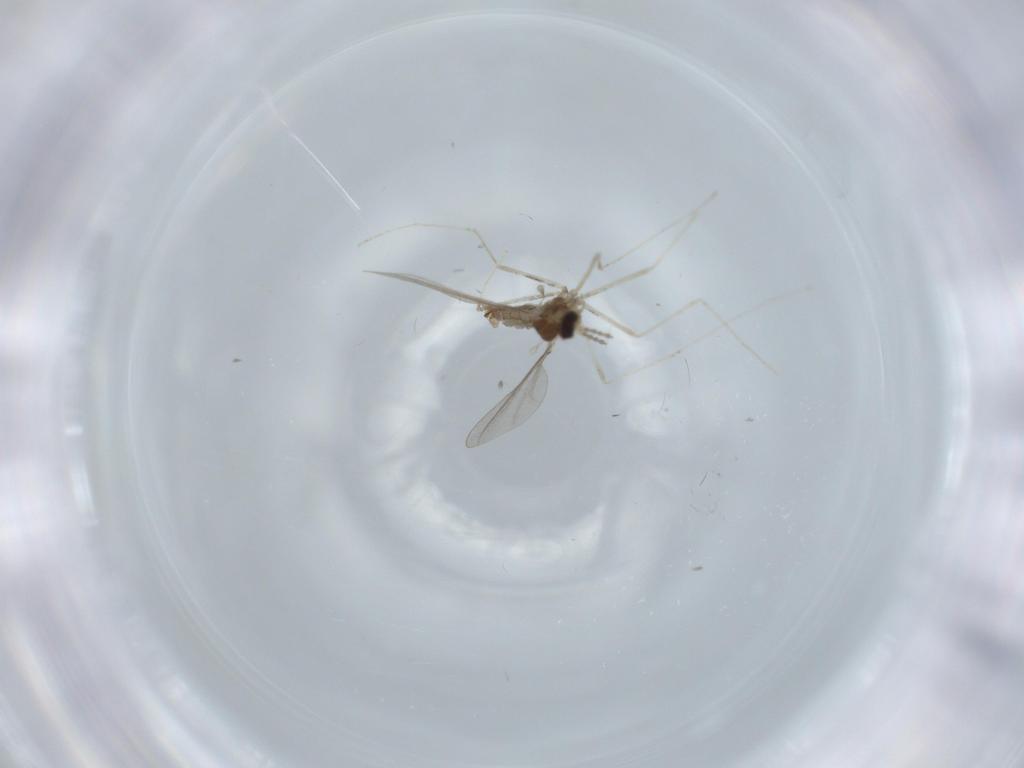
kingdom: Animalia
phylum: Arthropoda
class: Insecta
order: Diptera
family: Cecidomyiidae
